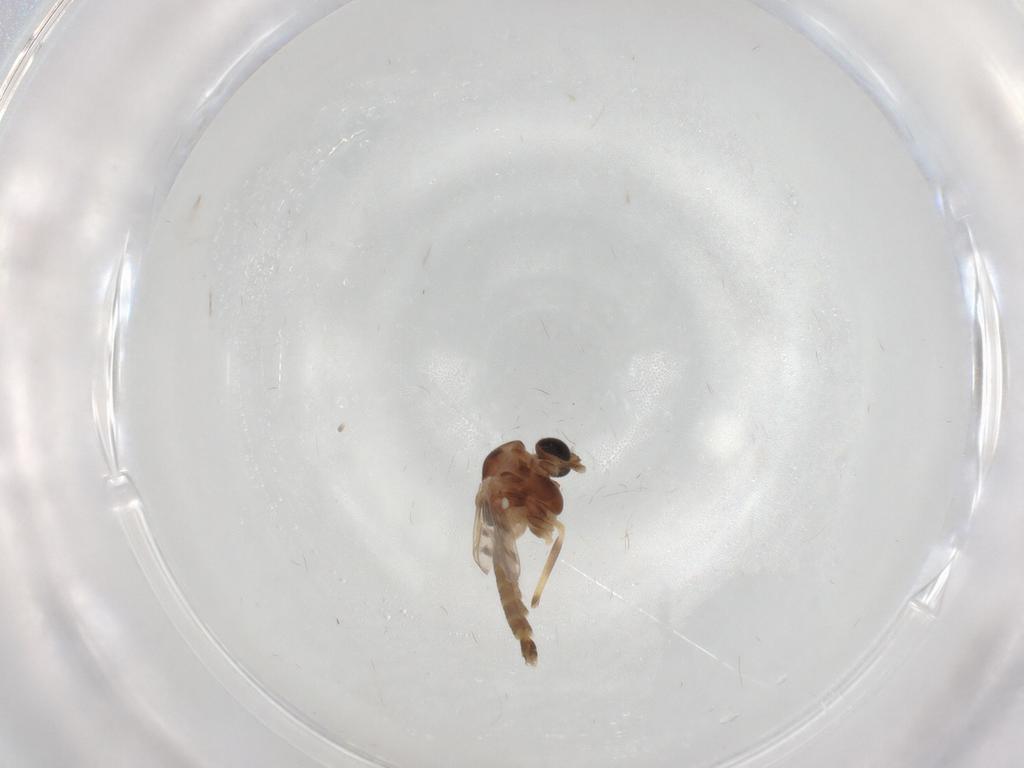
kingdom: Animalia
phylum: Arthropoda
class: Insecta
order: Diptera
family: Chironomidae
